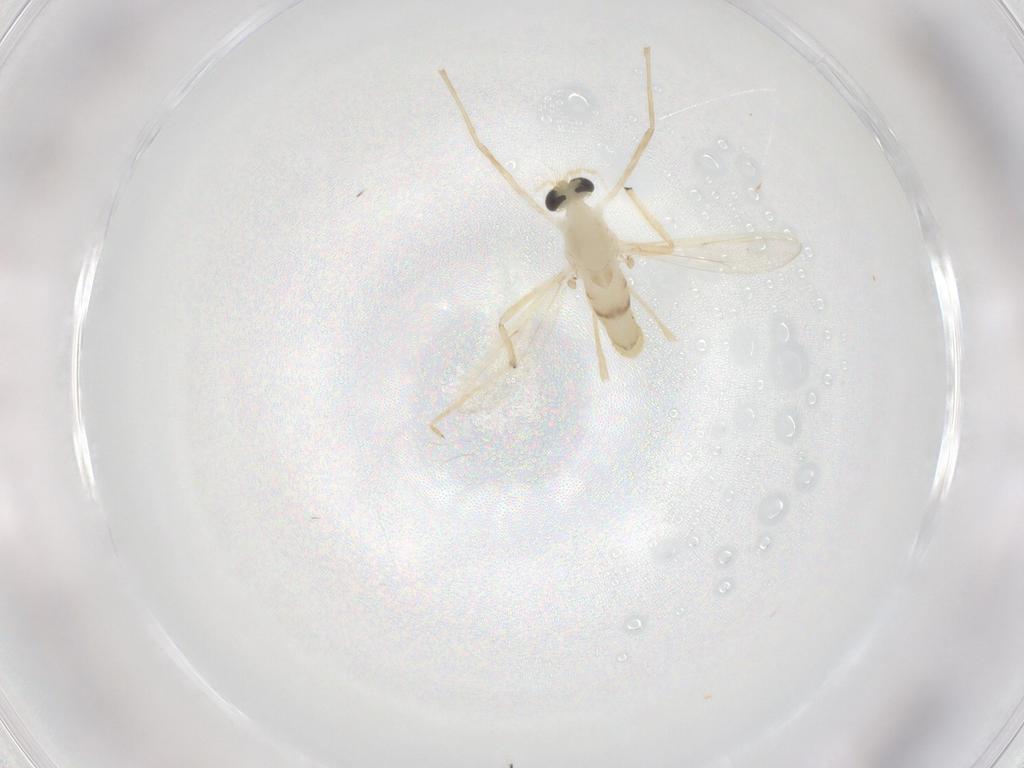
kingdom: Animalia
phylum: Arthropoda
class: Insecta
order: Diptera
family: Chironomidae
